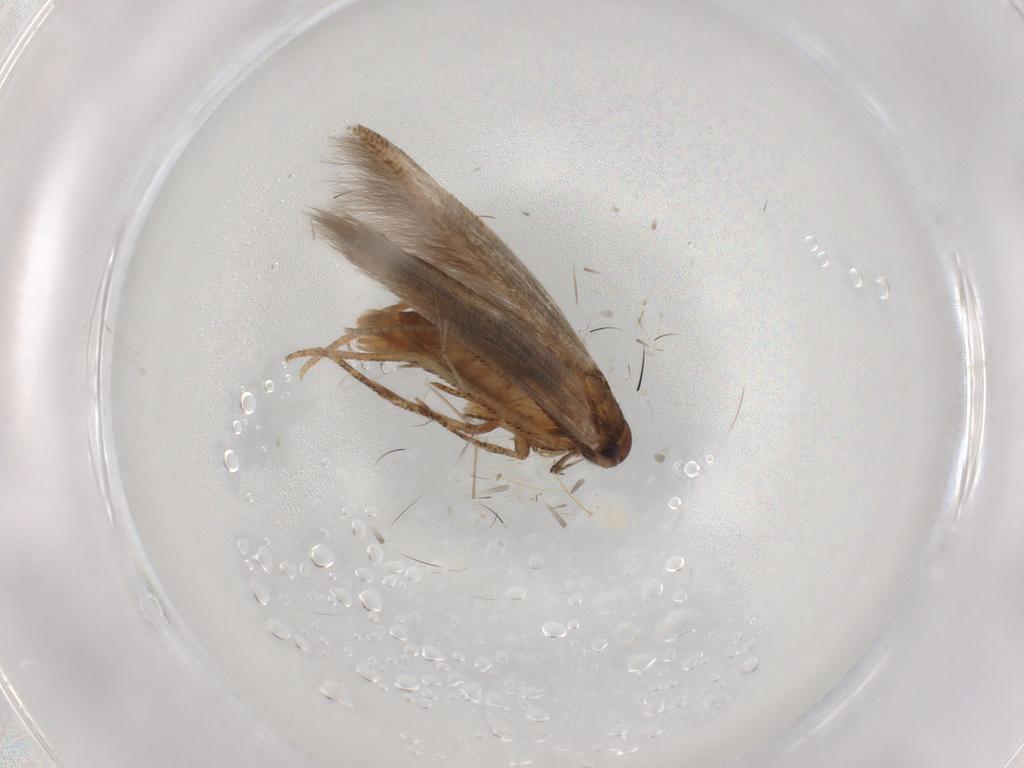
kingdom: Animalia
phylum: Arthropoda
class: Insecta
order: Lepidoptera
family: Cosmopterigidae
